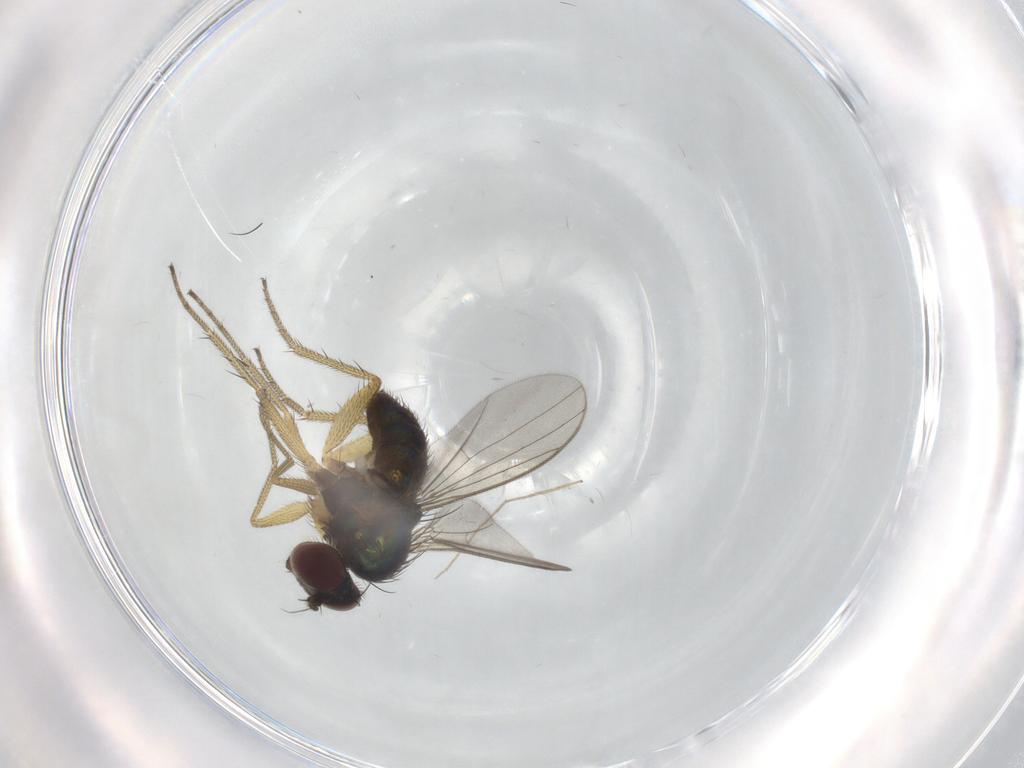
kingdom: Animalia
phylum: Arthropoda
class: Insecta
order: Diptera
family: Dolichopodidae
